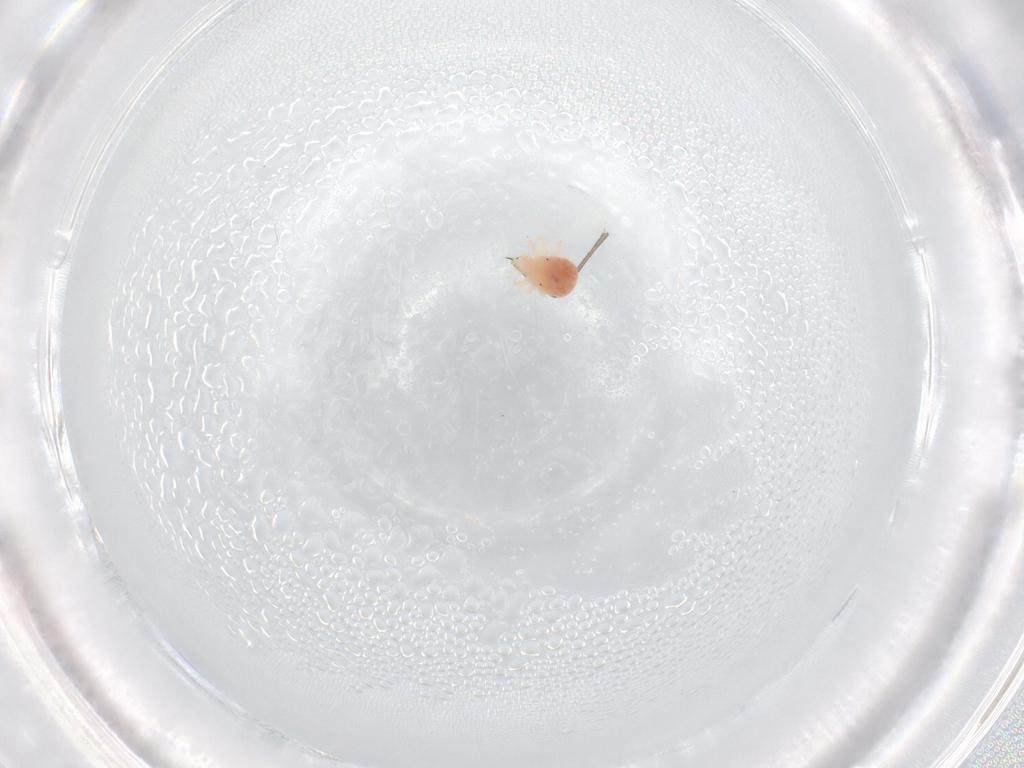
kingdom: Animalia
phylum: Arthropoda
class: Arachnida
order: Trombidiformes
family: Anystidae
